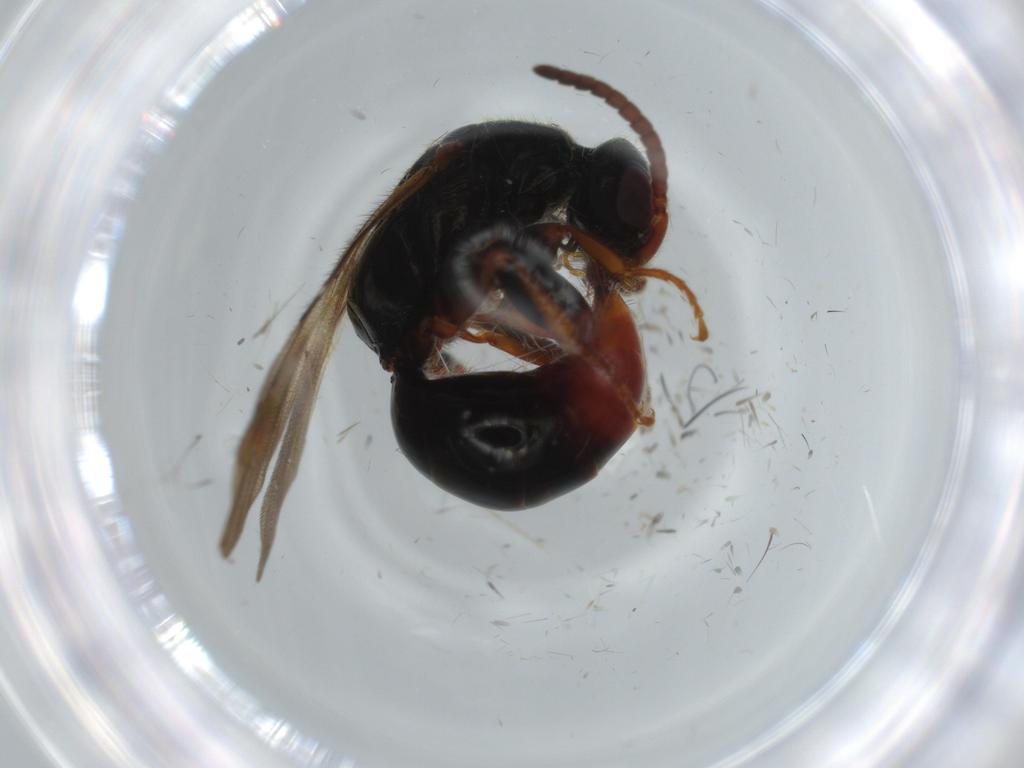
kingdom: Animalia
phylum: Arthropoda
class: Insecta
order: Hymenoptera
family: Bethylidae
